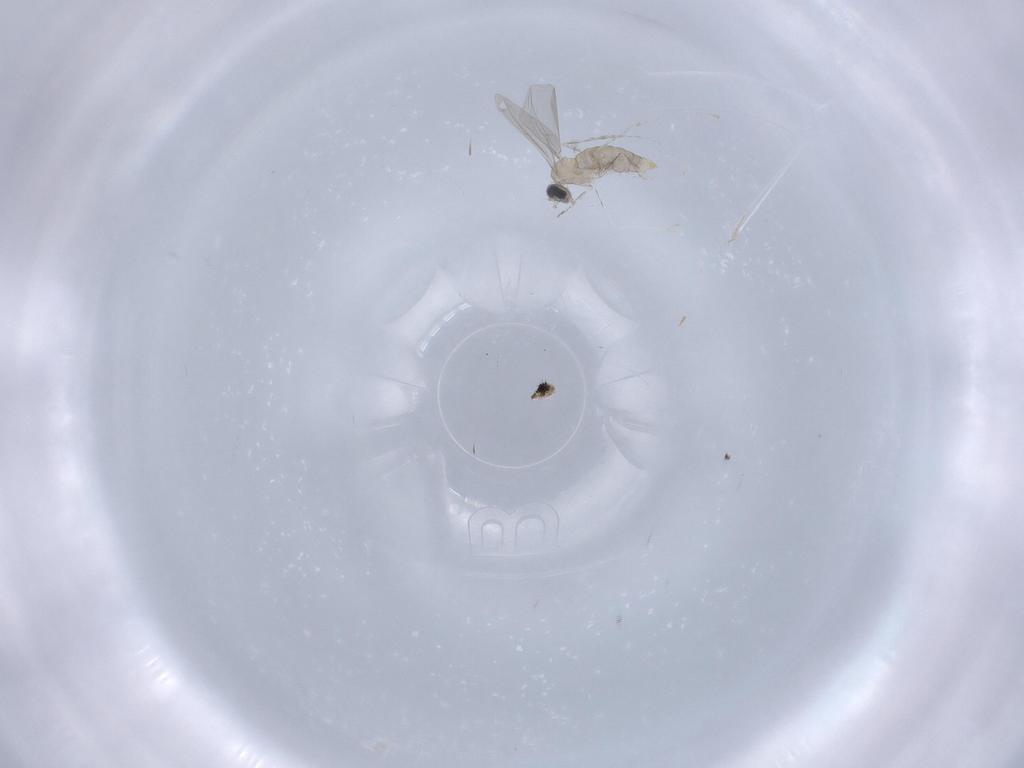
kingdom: Animalia
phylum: Arthropoda
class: Insecta
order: Diptera
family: Cecidomyiidae
